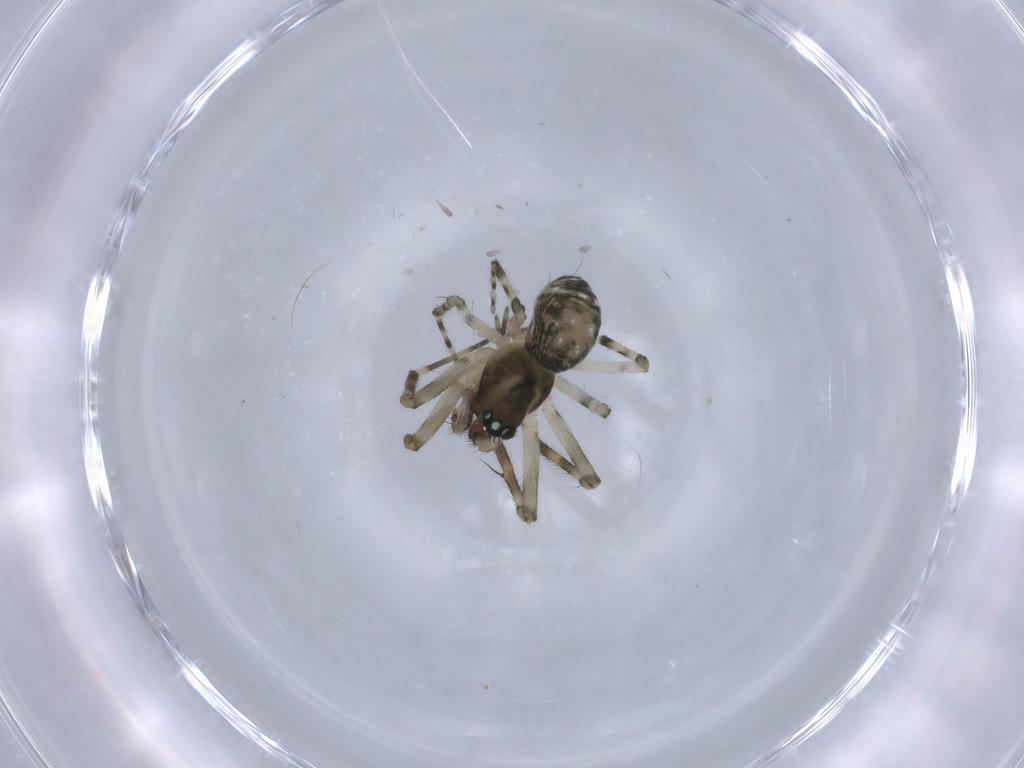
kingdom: Animalia
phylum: Arthropoda
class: Arachnida
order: Araneae
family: Theridiidae
